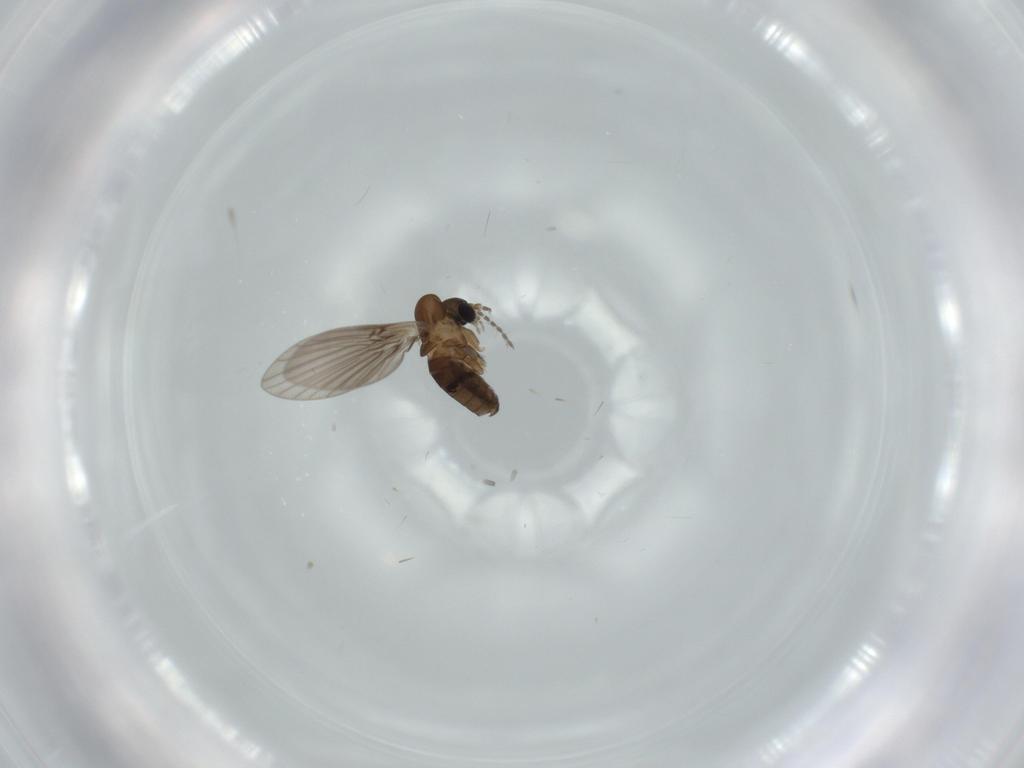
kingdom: Animalia
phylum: Arthropoda
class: Insecta
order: Diptera
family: Psychodidae
